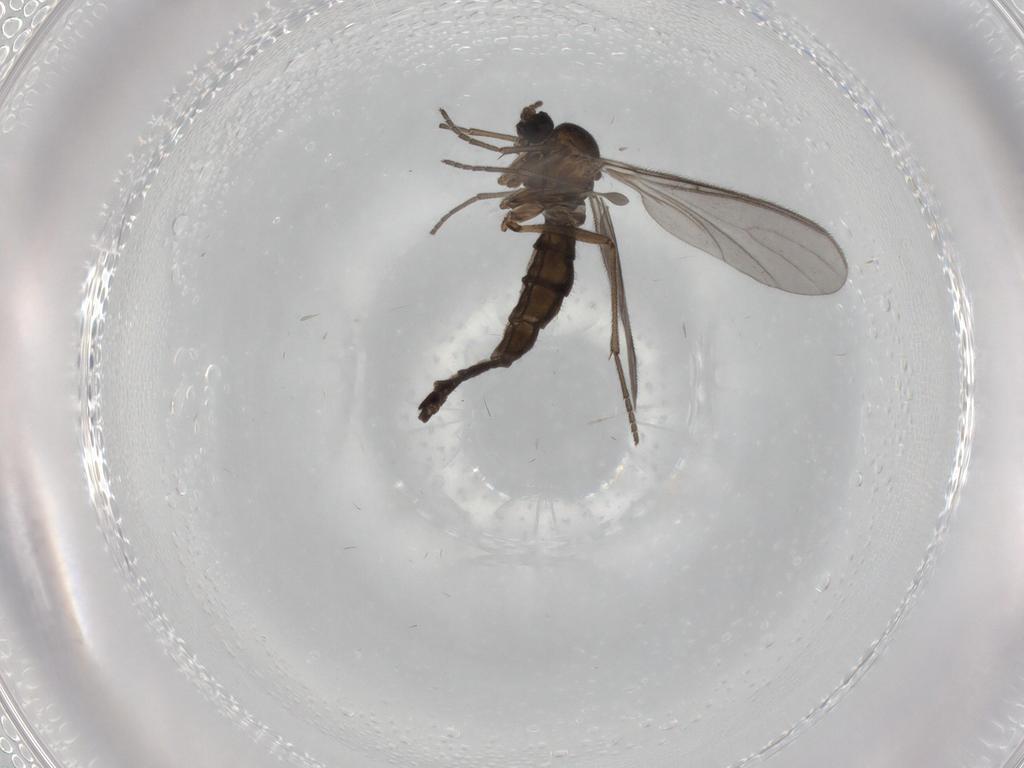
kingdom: Animalia
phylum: Arthropoda
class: Insecta
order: Diptera
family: Sciaridae
